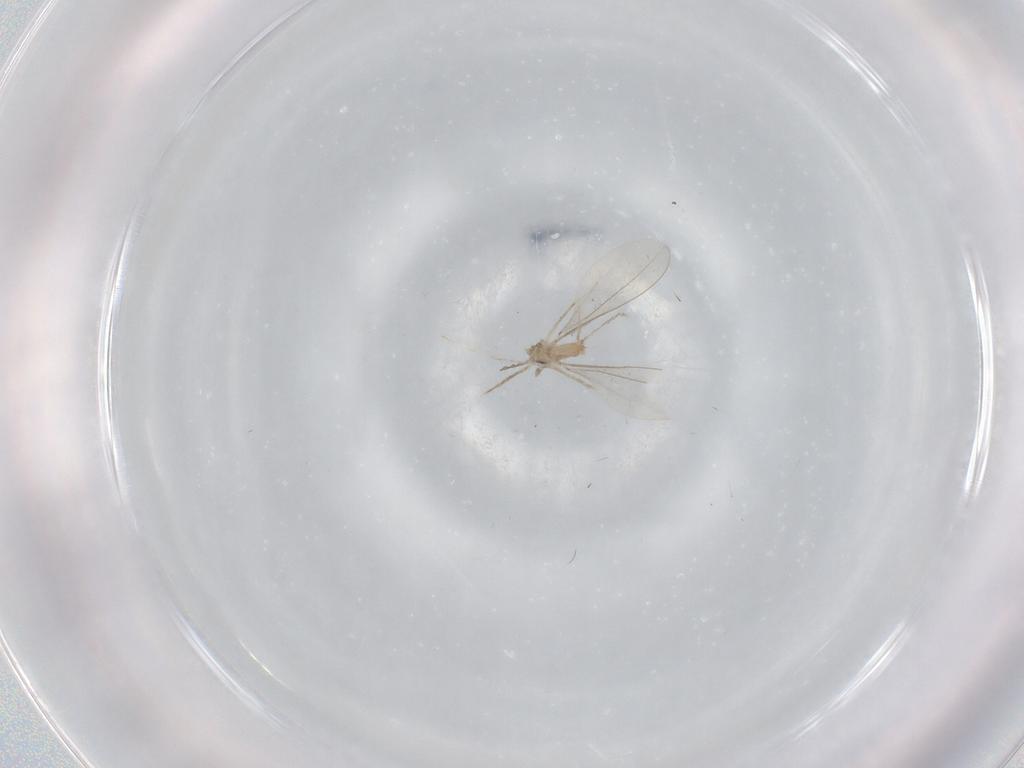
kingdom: Animalia
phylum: Arthropoda
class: Insecta
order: Diptera
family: Cecidomyiidae
